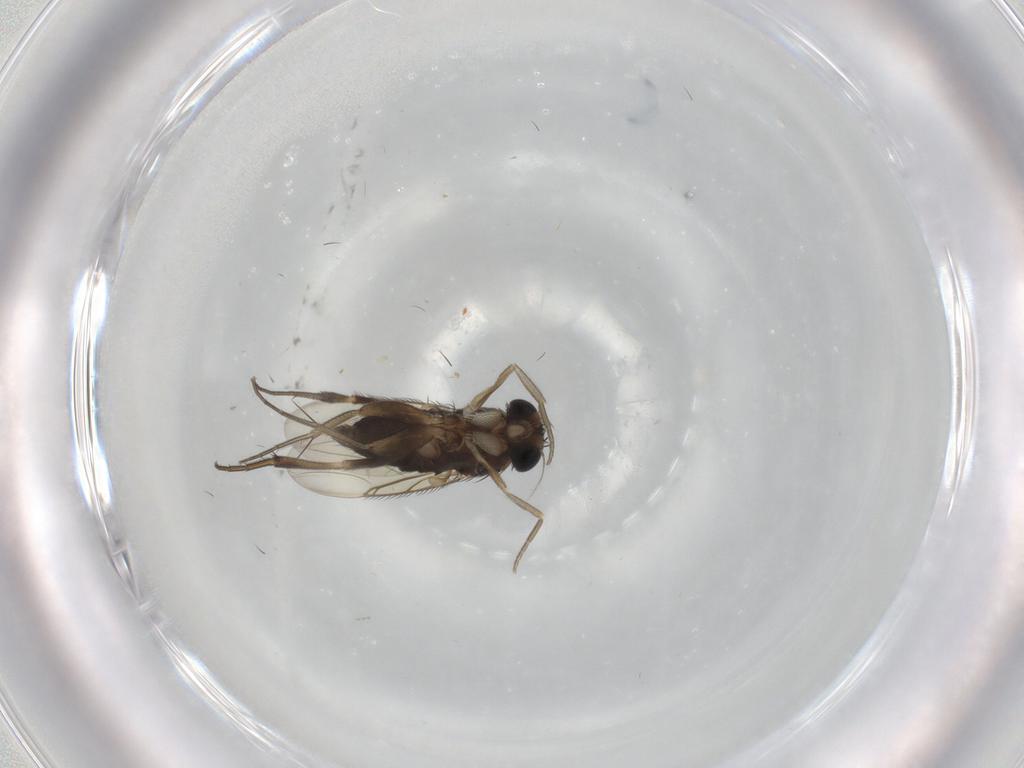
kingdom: Animalia
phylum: Arthropoda
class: Insecta
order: Diptera
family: Phoridae
